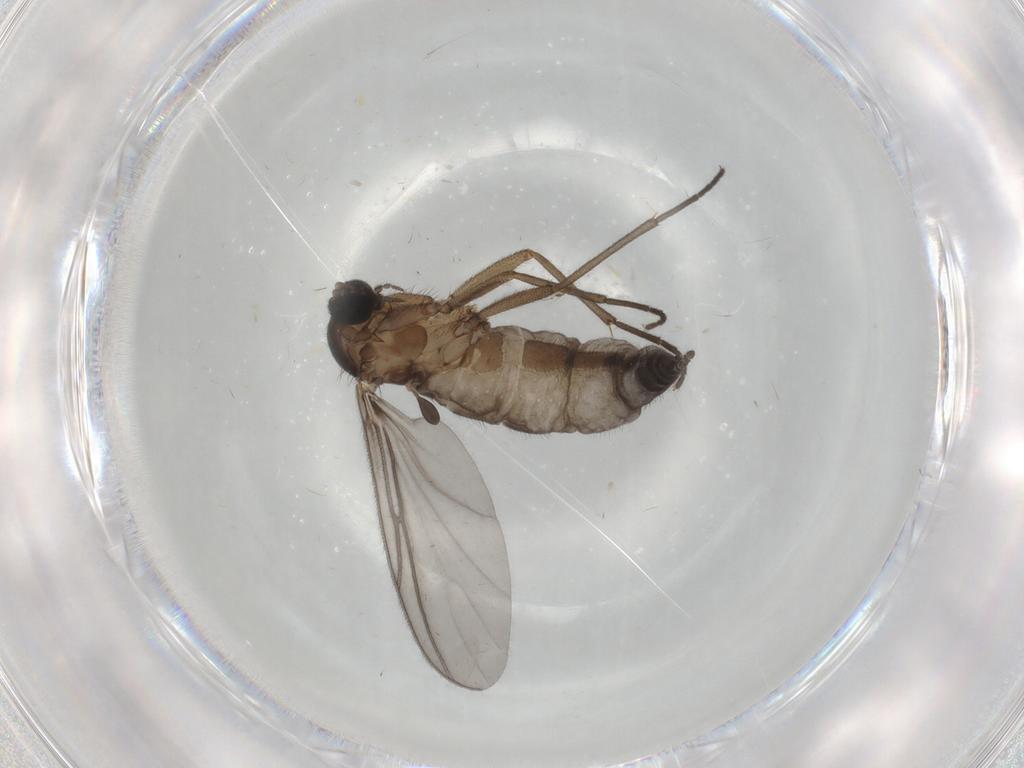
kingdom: Animalia
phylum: Arthropoda
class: Insecta
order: Diptera
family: Sciaridae
